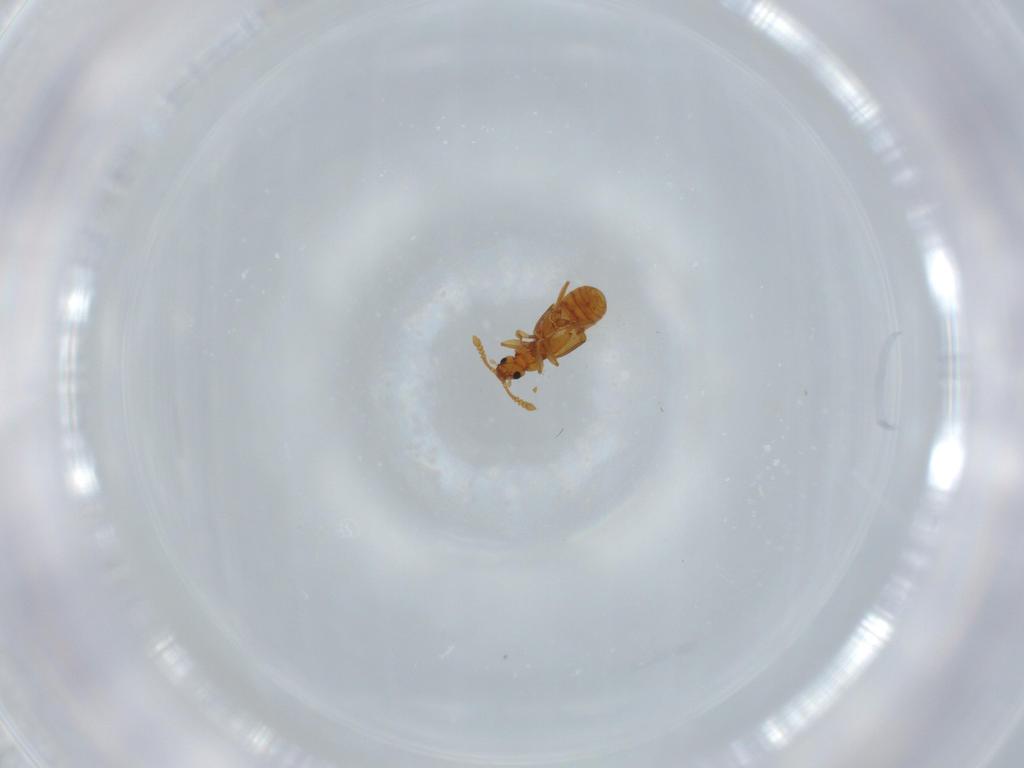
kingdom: Animalia
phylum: Arthropoda
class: Insecta
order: Coleoptera
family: Staphylinidae
